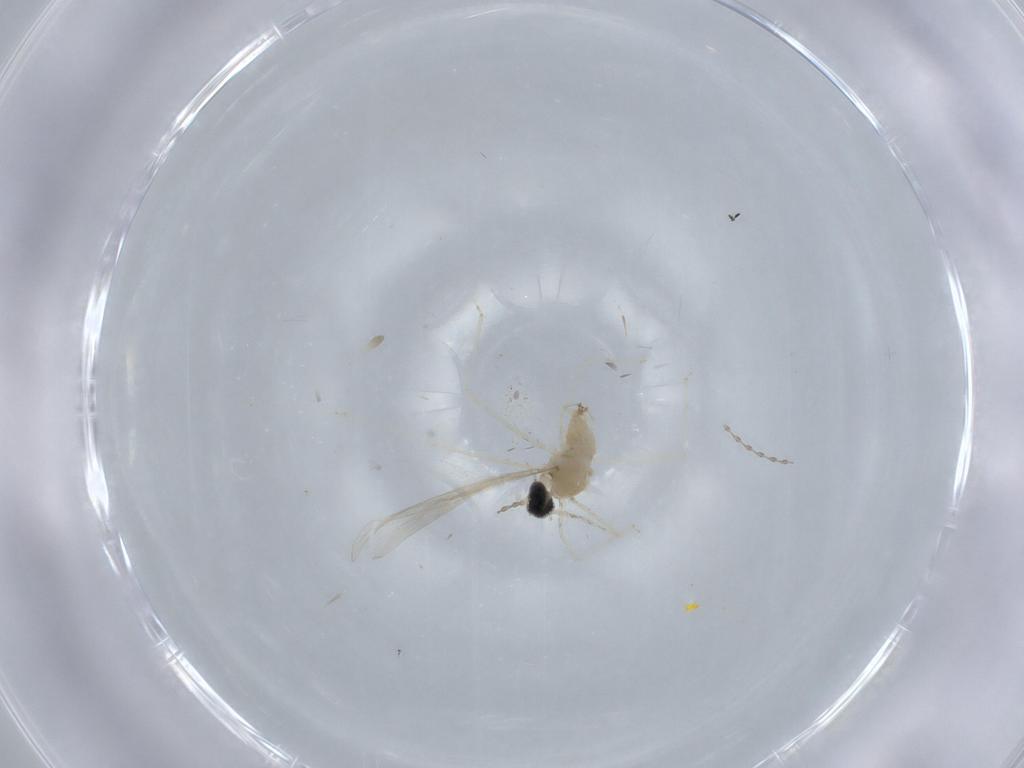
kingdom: Animalia
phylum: Arthropoda
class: Insecta
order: Diptera
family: Cecidomyiidae
